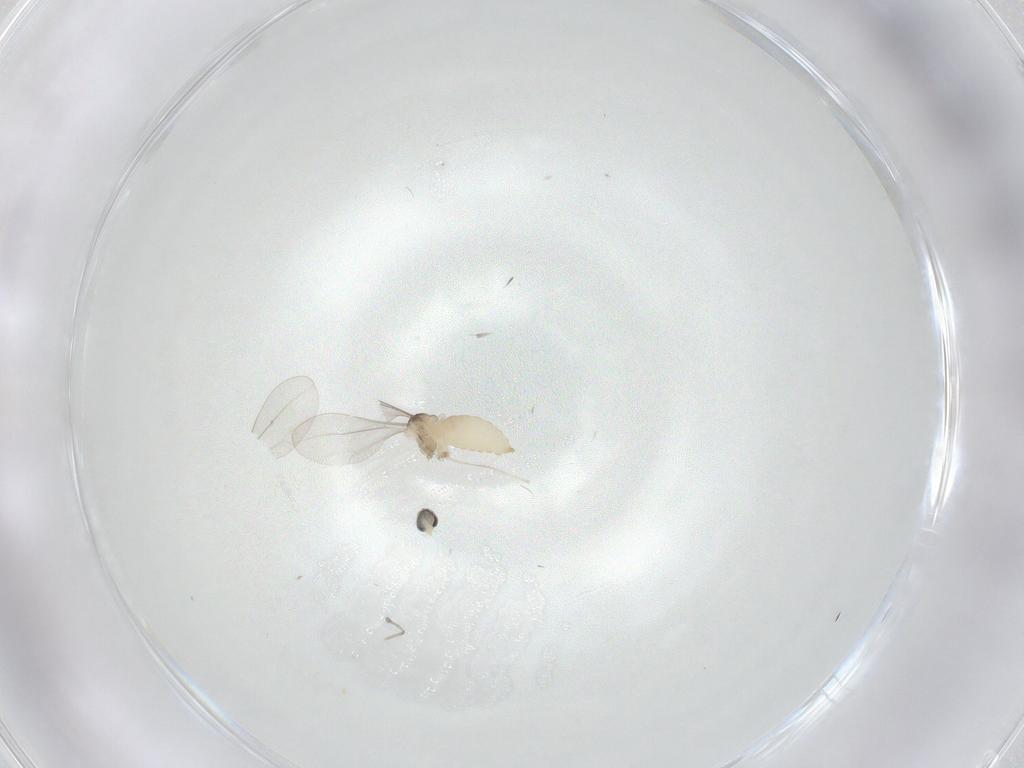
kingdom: Animalia
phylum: Arthropoda
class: Insecta
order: Diptera
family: Cecidomyiidae
